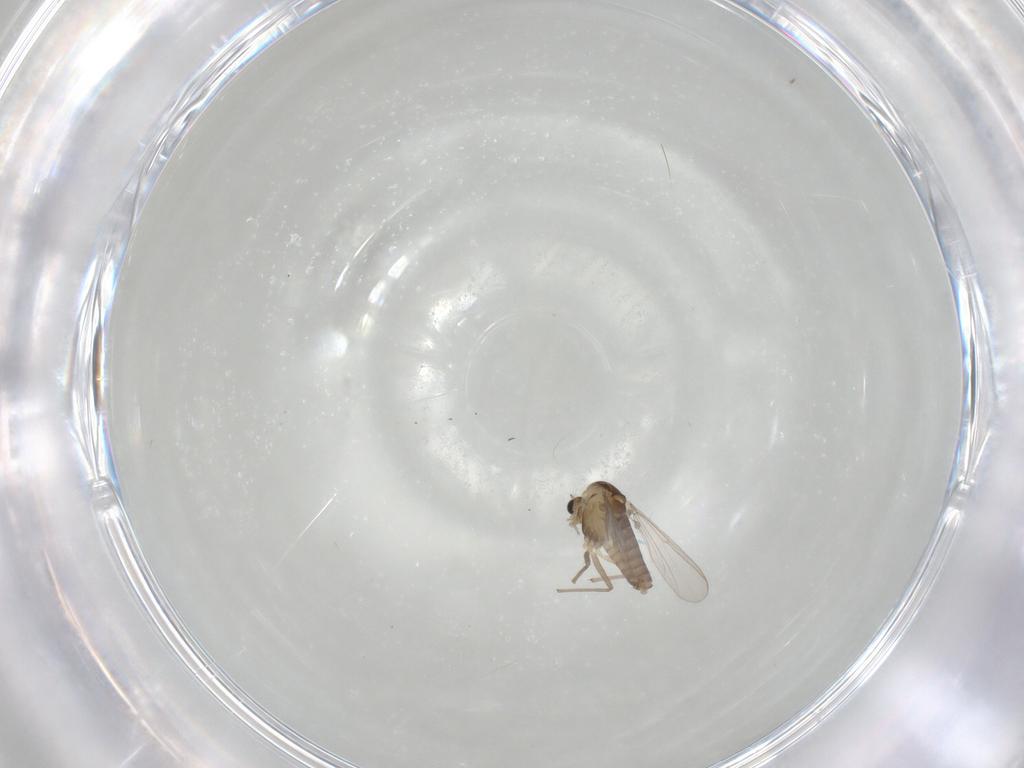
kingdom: Animalia
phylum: Arthropoda
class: Insecta
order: Diptera
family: Chironomidae
